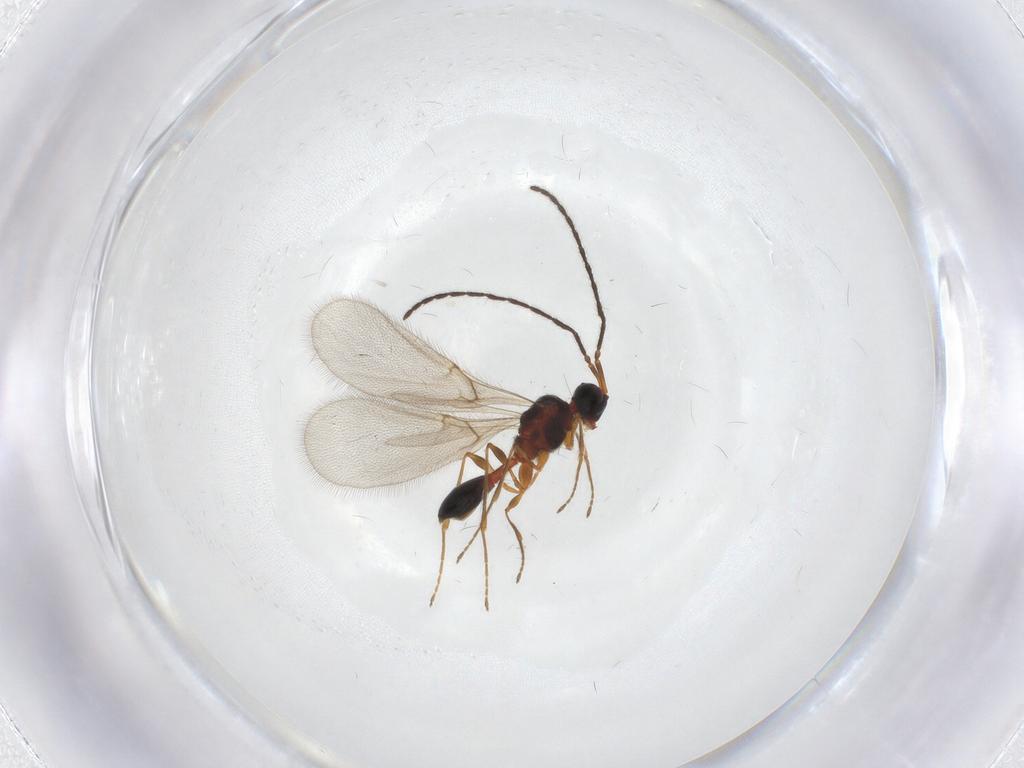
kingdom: Animalia
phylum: Arthropoda
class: Insecta
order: Hymenoptera
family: Diapriidae
